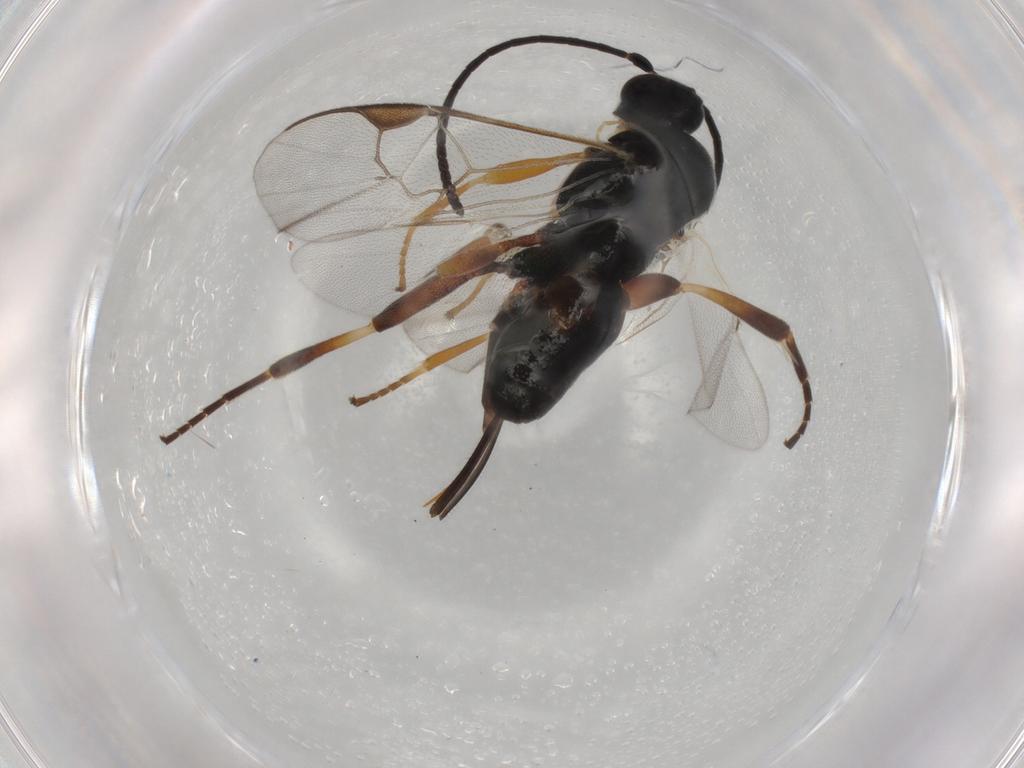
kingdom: Animalia
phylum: Arthropoda
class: Insecta
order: Hymenoptera
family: Braconidae
